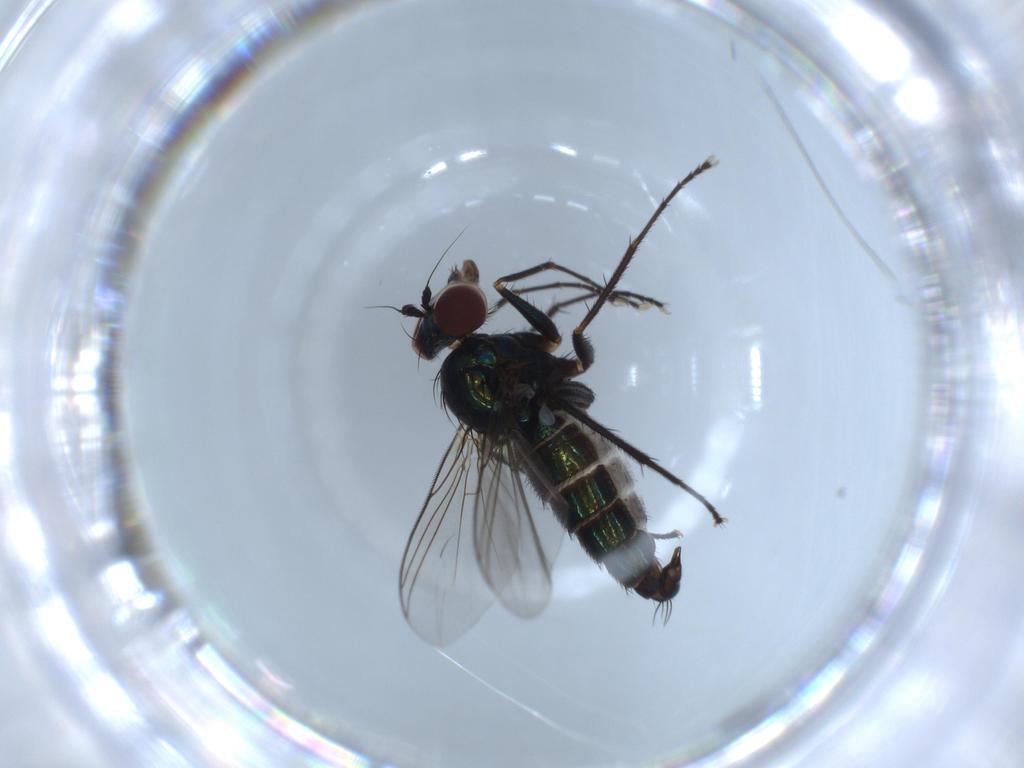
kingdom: Animalia
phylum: Arthropoda
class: Insecta
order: Diptera
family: Dolichopodidae
